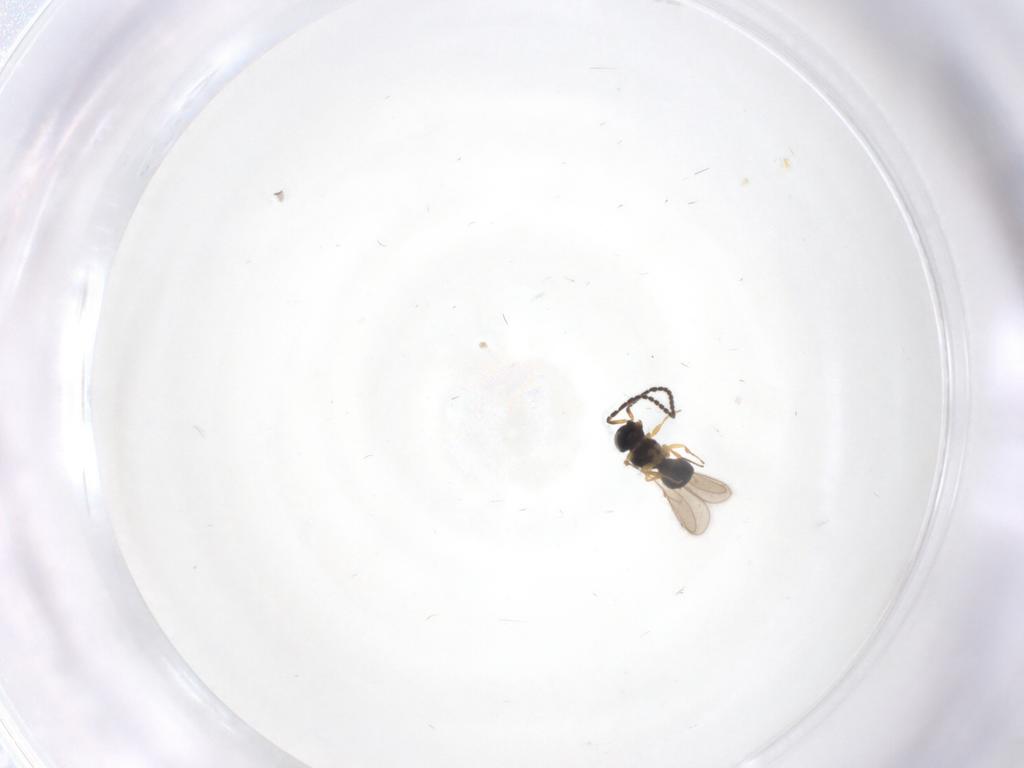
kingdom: Animalia
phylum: Arthropoda
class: Insecta
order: Hymenoptera
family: Scelionidae
